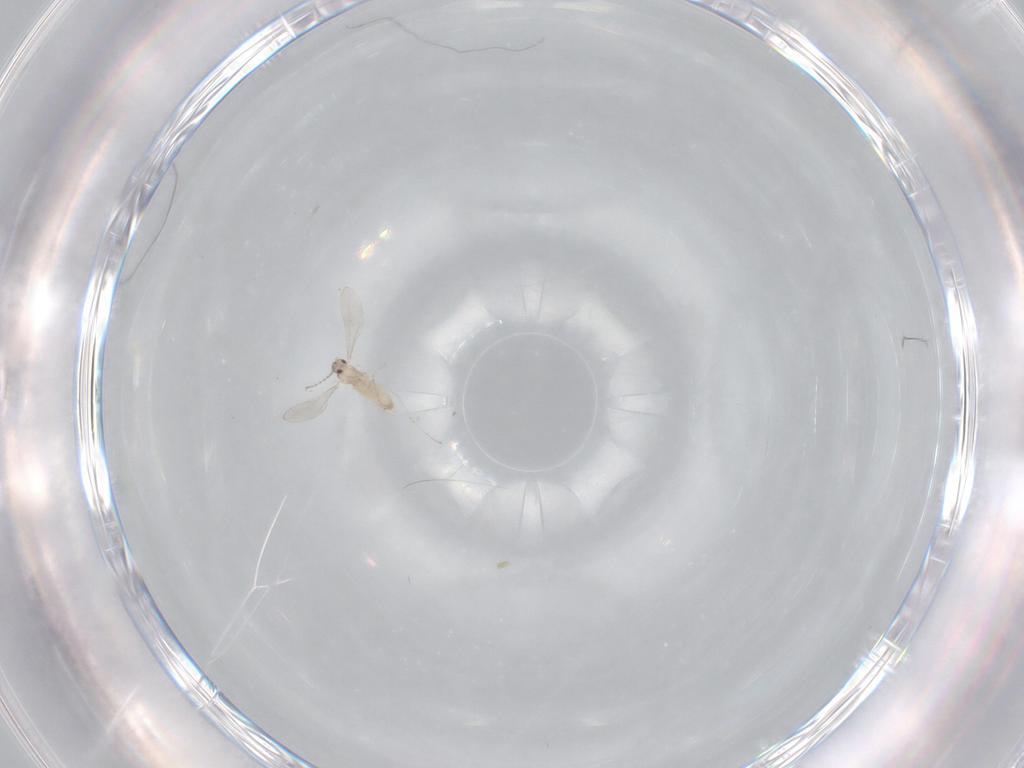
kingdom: Animalia
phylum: Arthropoda
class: Insecta
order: Diptera
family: Cecidomyiidae
